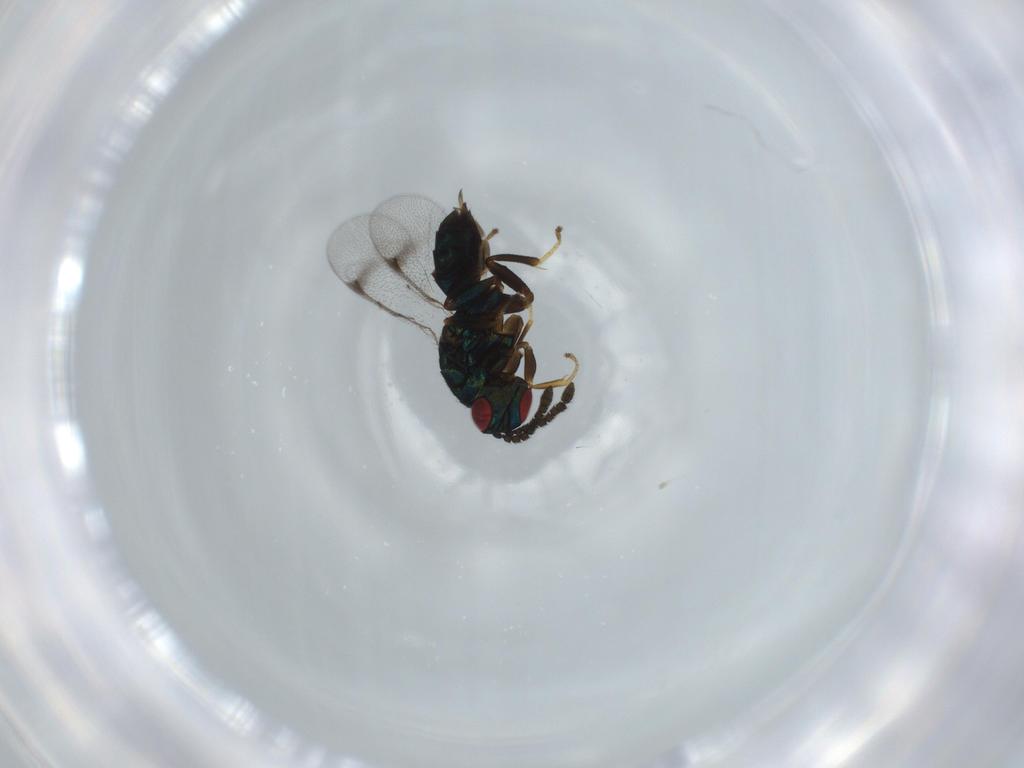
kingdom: Animalia
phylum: Arthropoda
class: Insecta
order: Hymenoptera
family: Torymidae
